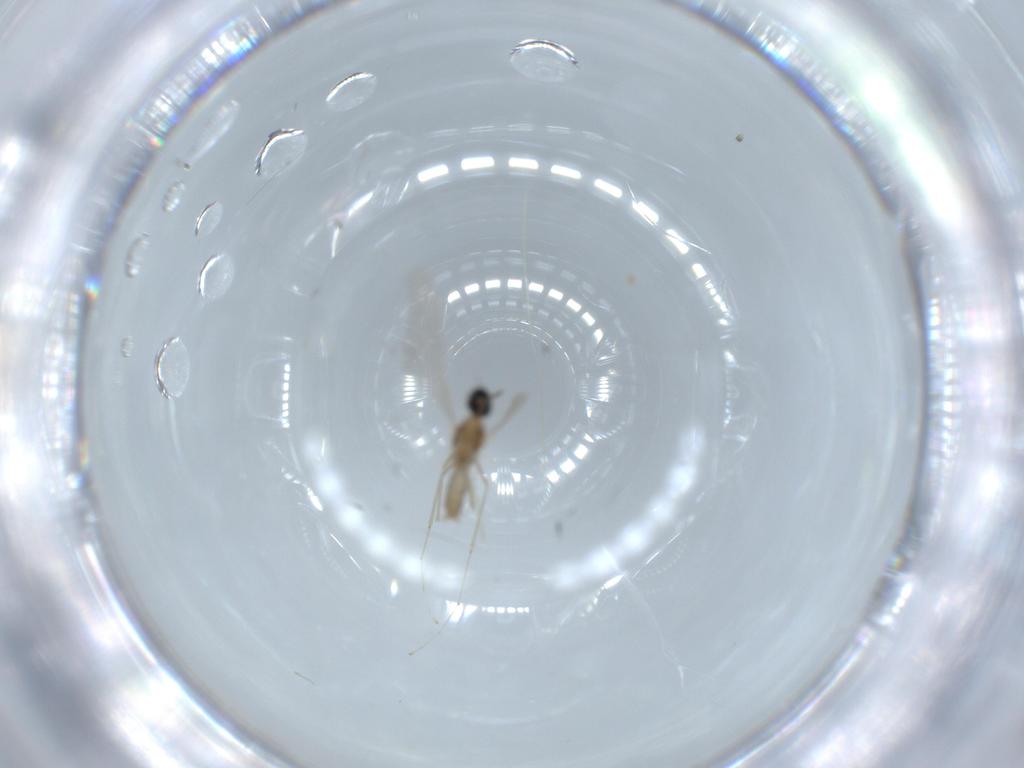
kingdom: Animalia
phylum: Arthropoda
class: Insecta
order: Diptera
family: Cecidomyiidae
